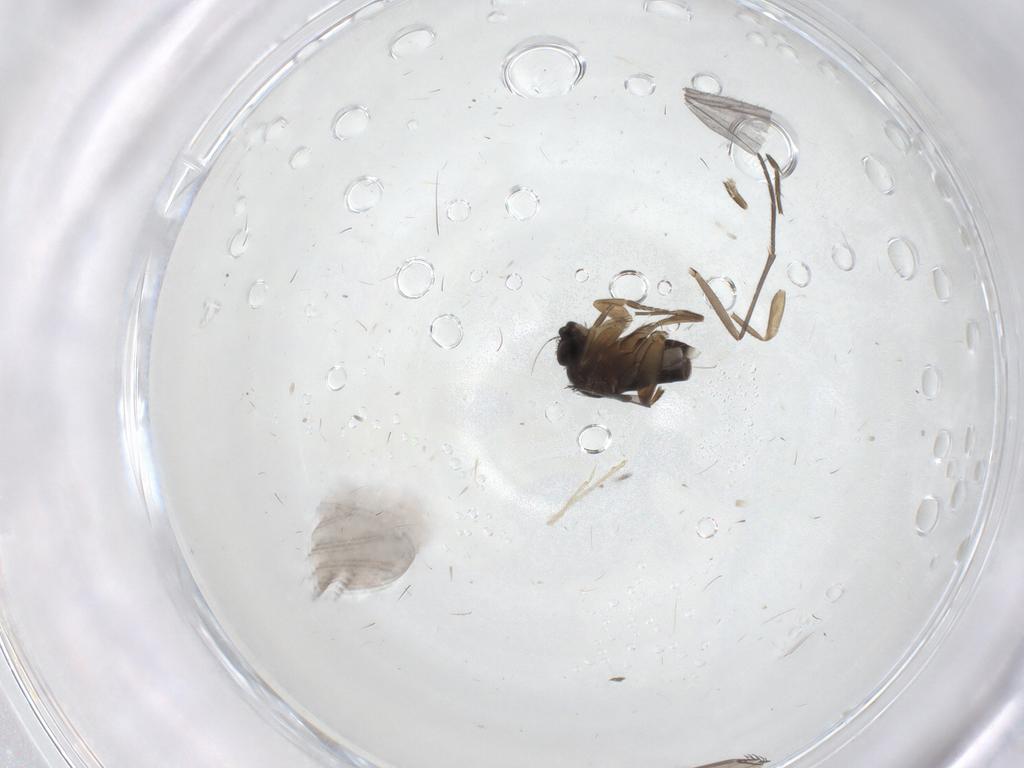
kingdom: Animalia
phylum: Arthropoda
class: Insecta
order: Diptera
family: Phoridae
